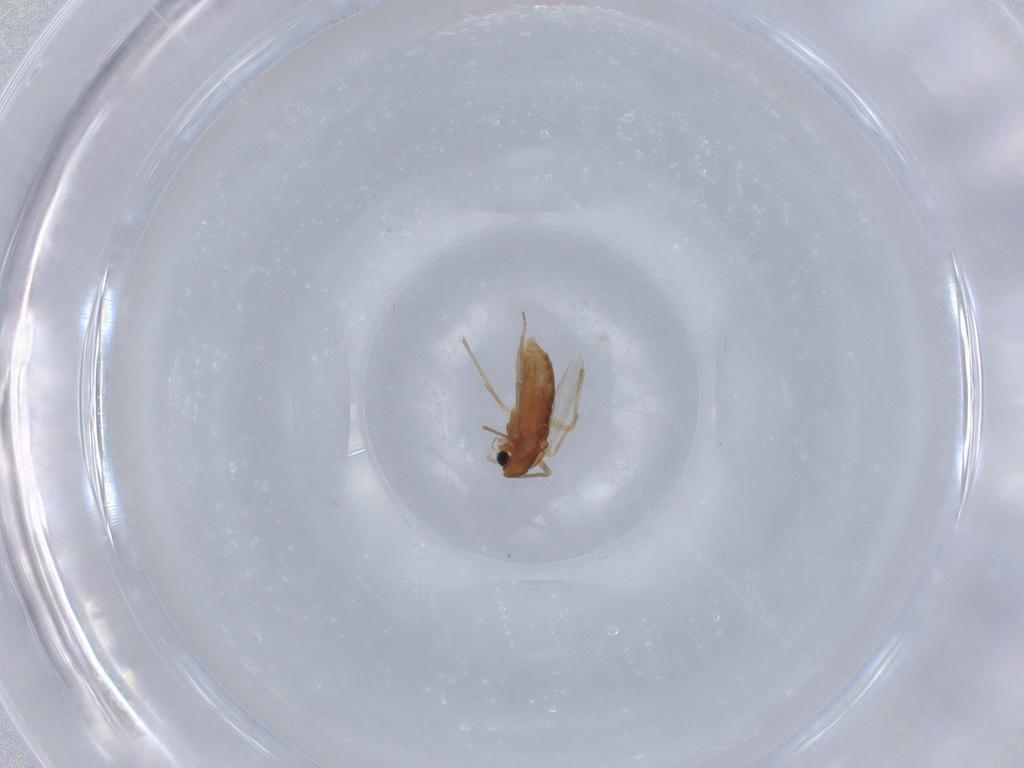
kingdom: Animalia
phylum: Arthropoda
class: Insecta
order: Diptera
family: Chironomidae
